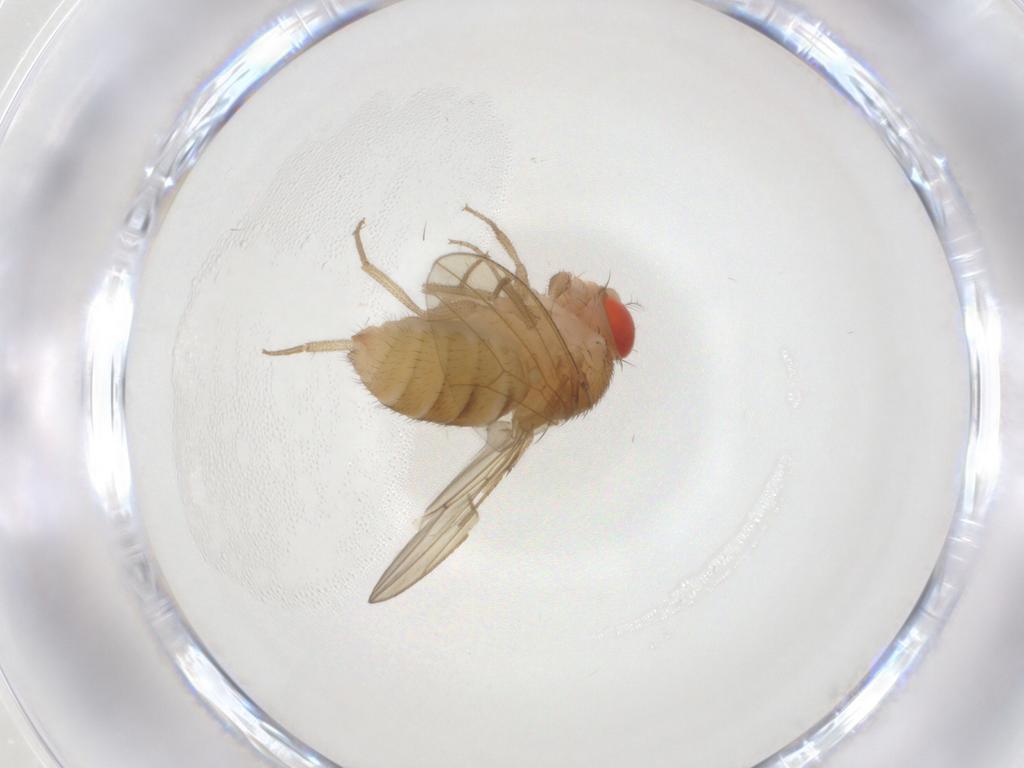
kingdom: Animalia
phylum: Arthropoda
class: Insecta
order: Diptera
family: Drosophilidae
